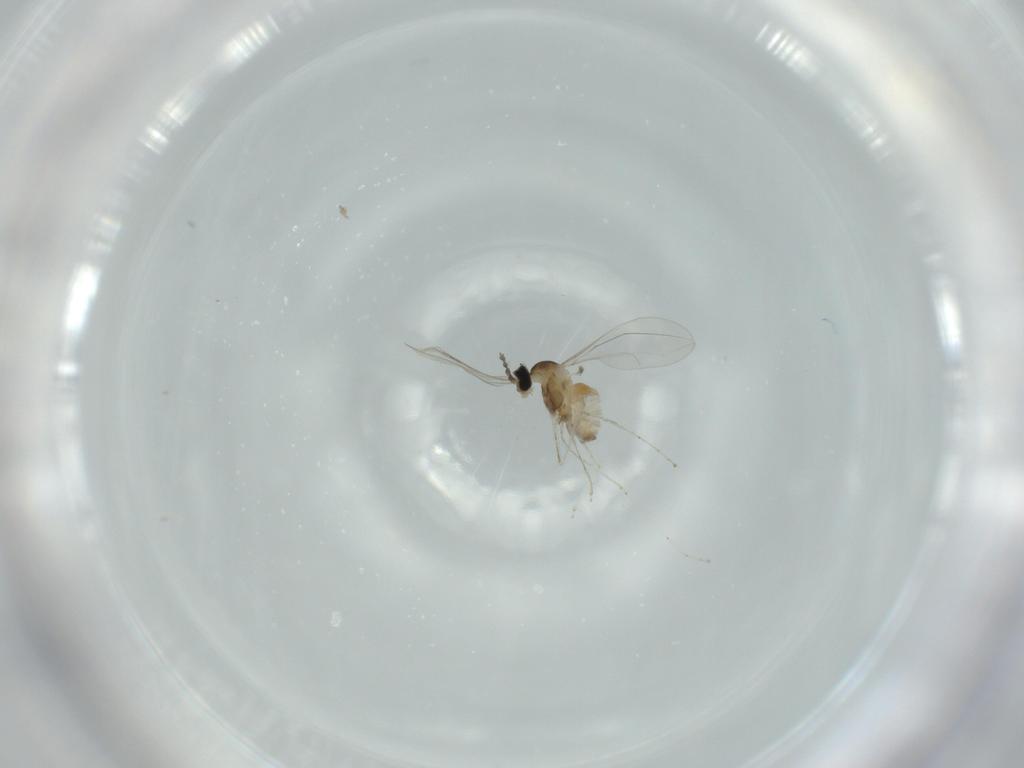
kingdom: Animalia
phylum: Arthropoda
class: Insecta
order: Diptera
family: Cecidomyiidae
